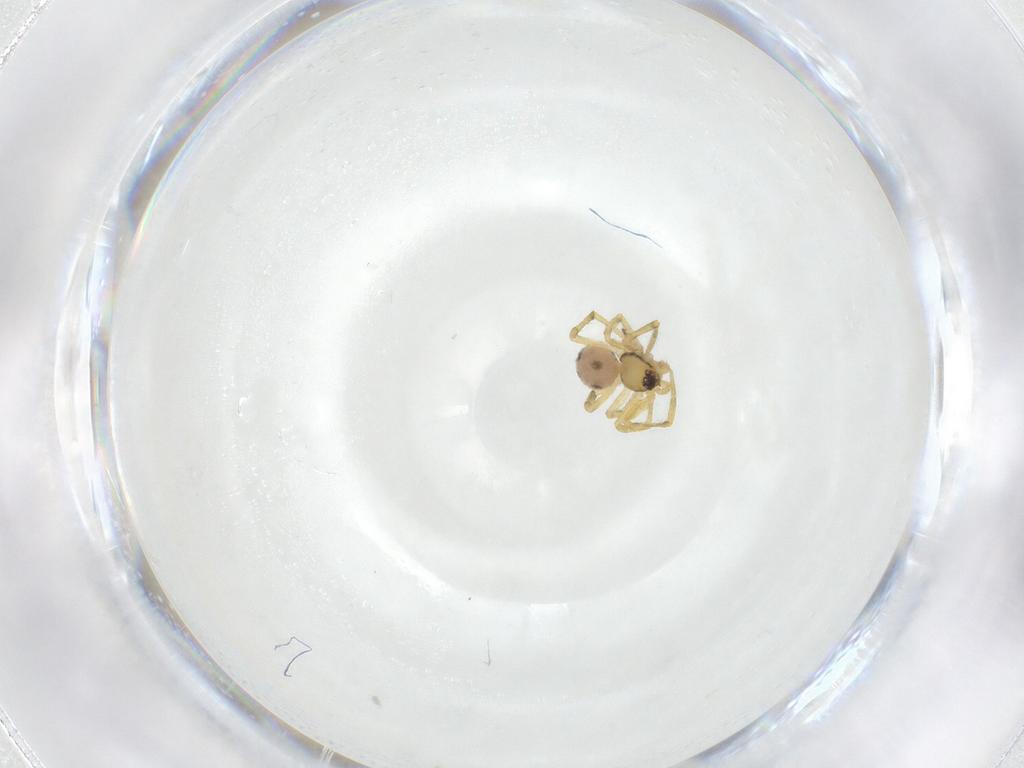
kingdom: Animalia
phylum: Arthropoda
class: Arachnida
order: Araneae
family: Theridiidae
